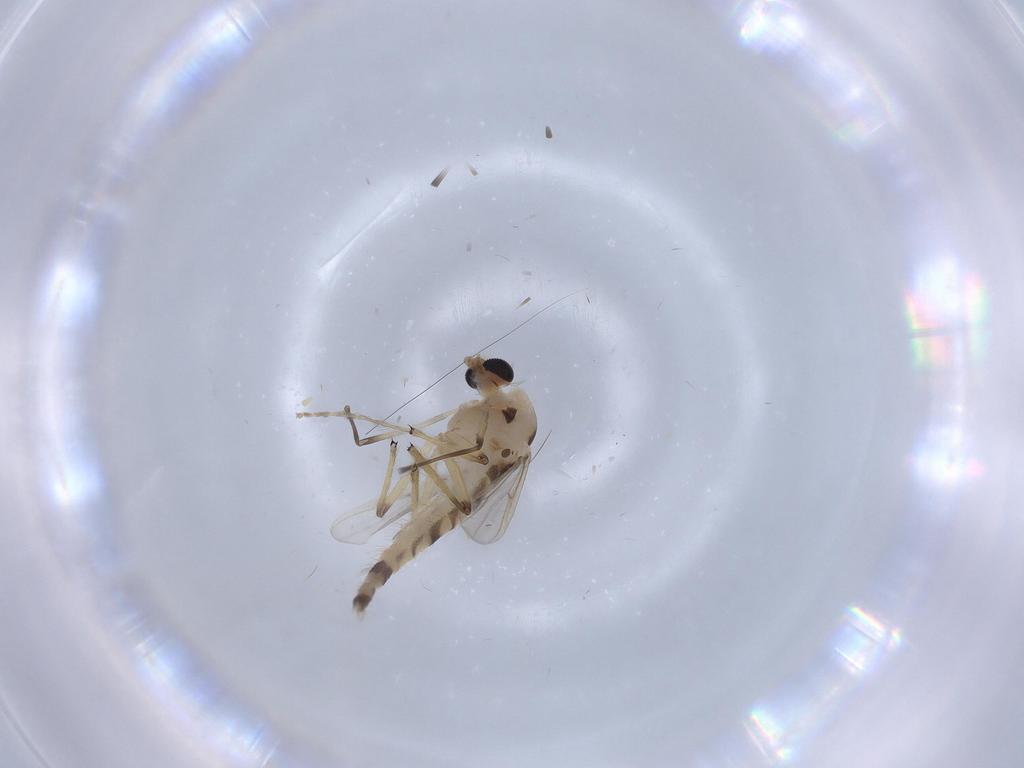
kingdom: Animalia
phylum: Arthropoda
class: Insecta
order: Diptera
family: Chironomidae
